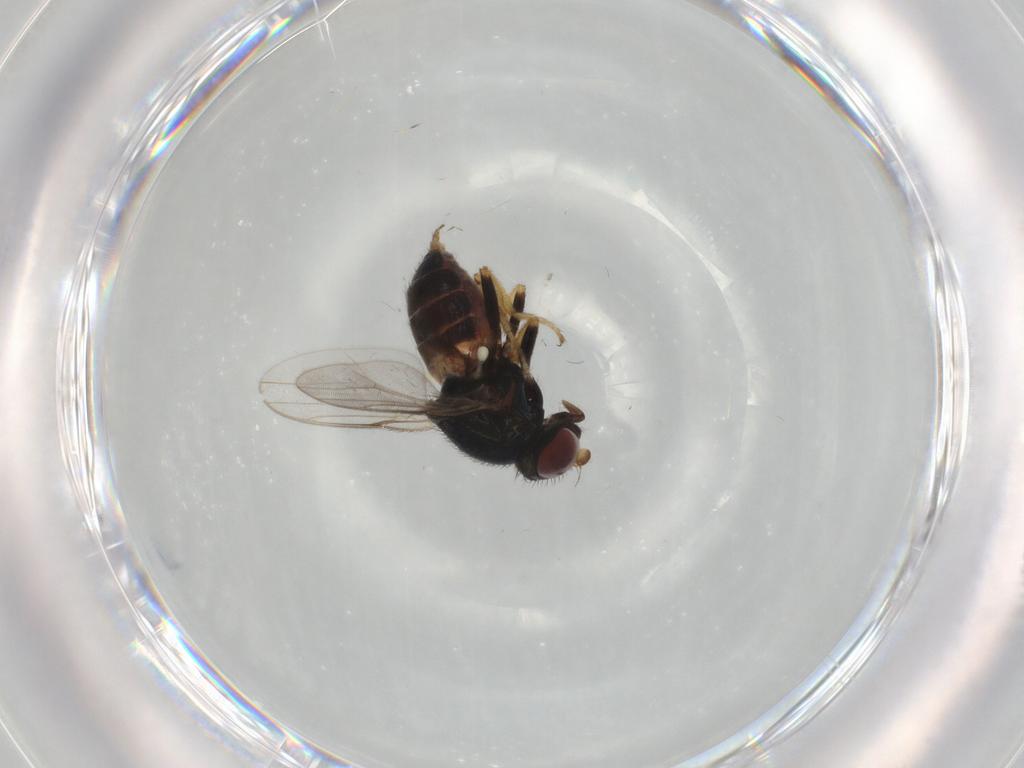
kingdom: Animalia
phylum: Arthropoda
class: Insecta
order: Diptera
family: Chloropidae
